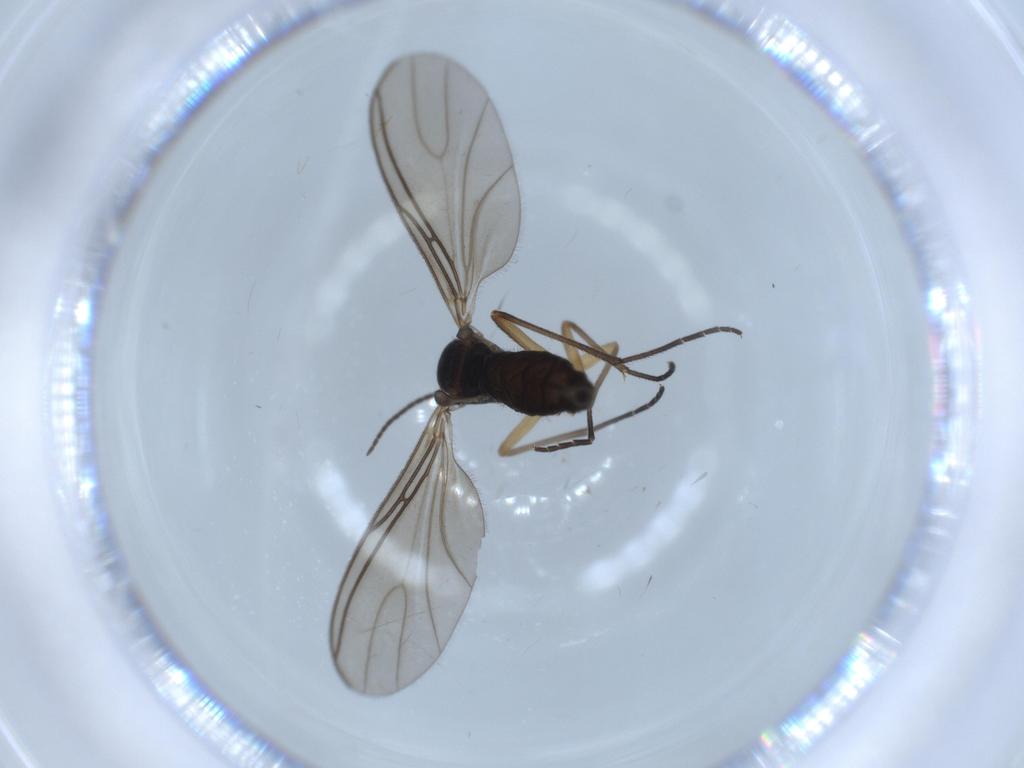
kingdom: Animalia
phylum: Arthropoda
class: Insecta
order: Diptera
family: Sciaridae
